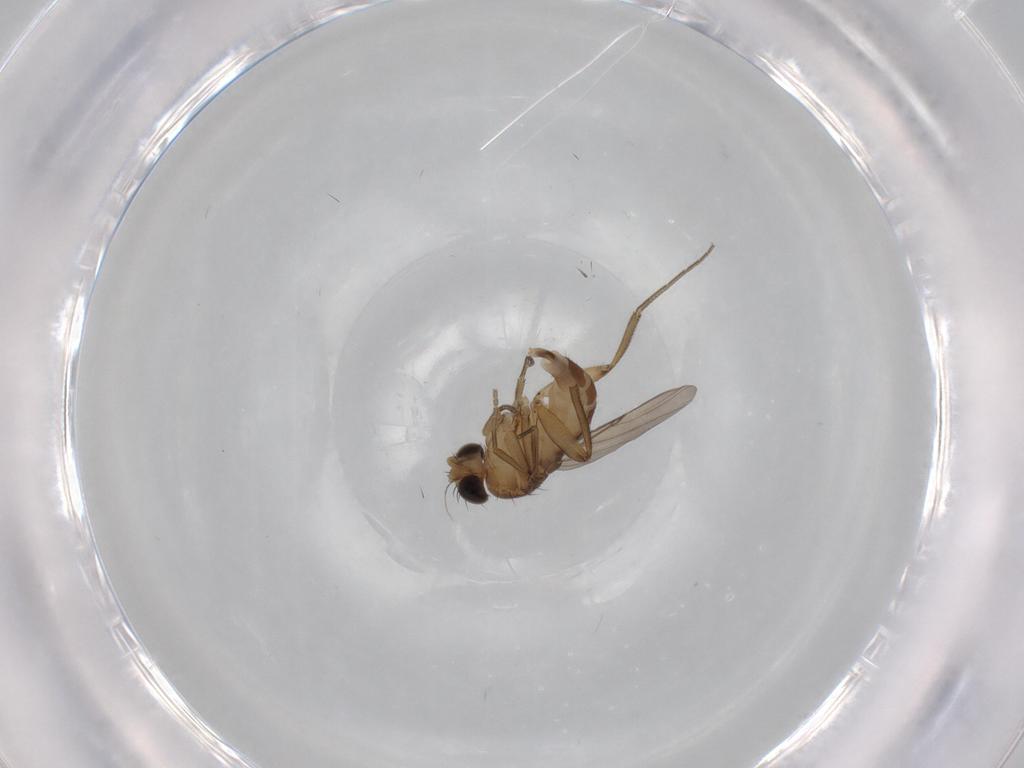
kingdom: Animalia
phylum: Arthropoda
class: Insecta
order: Diptera
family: Phoridae
